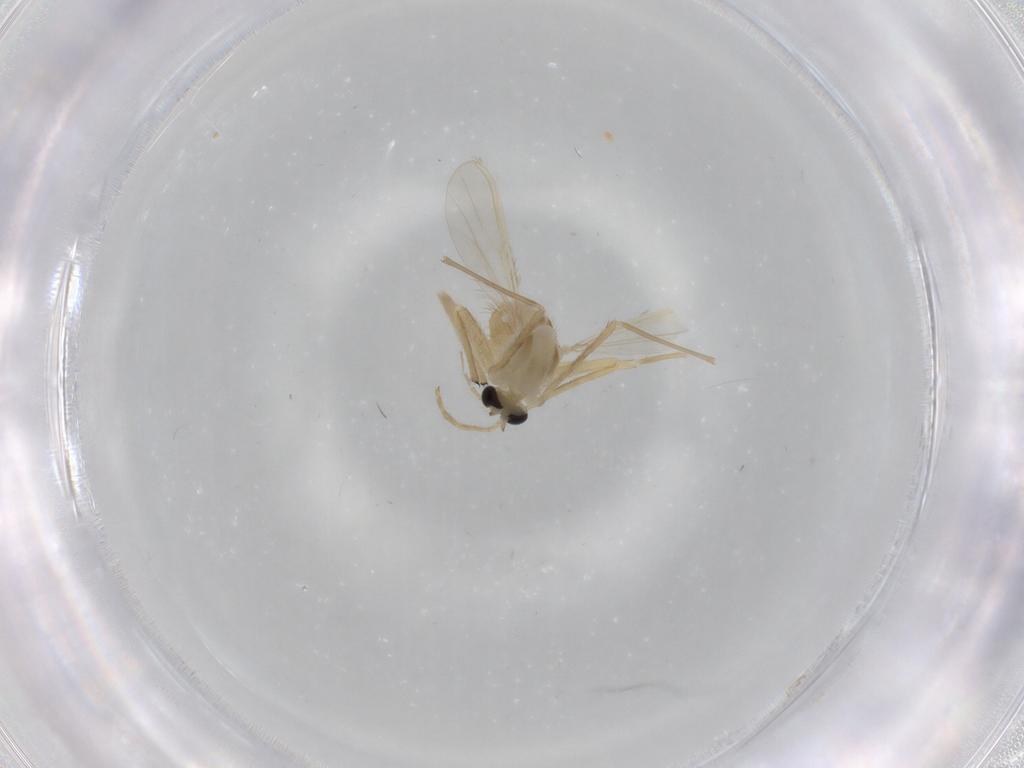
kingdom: Animalia
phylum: Arthropoda
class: Insecta
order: Diptera
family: Chironomidae
